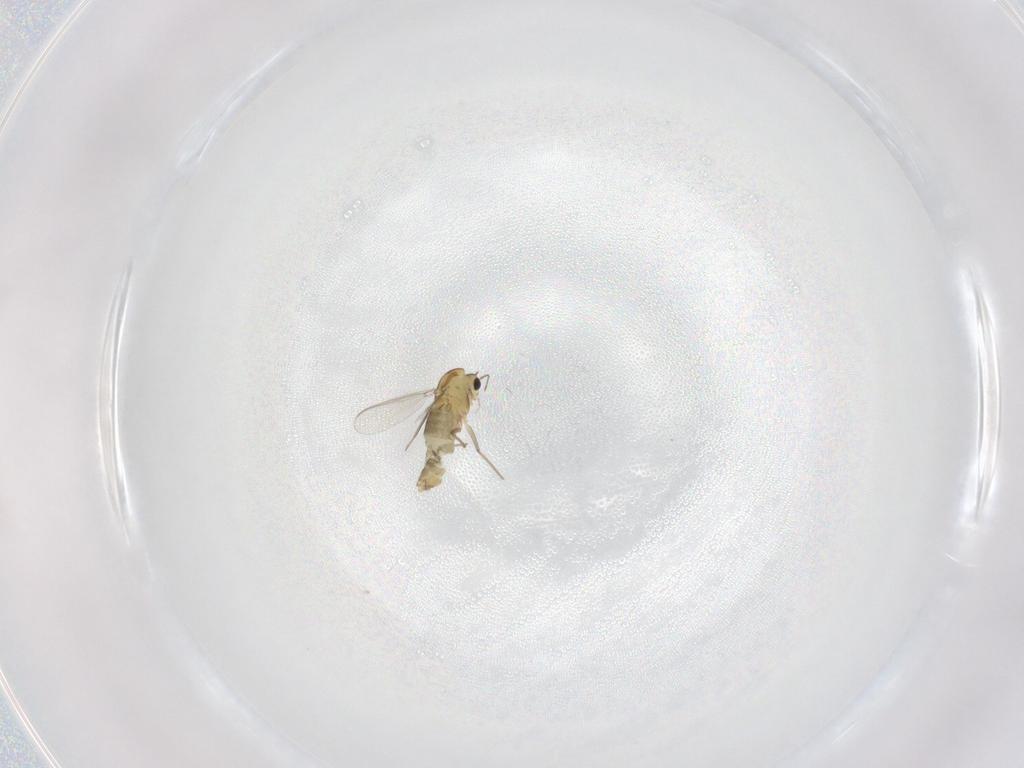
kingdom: Animalia
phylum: Arthropoda
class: Insecta
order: Diptera
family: Chironomidae
